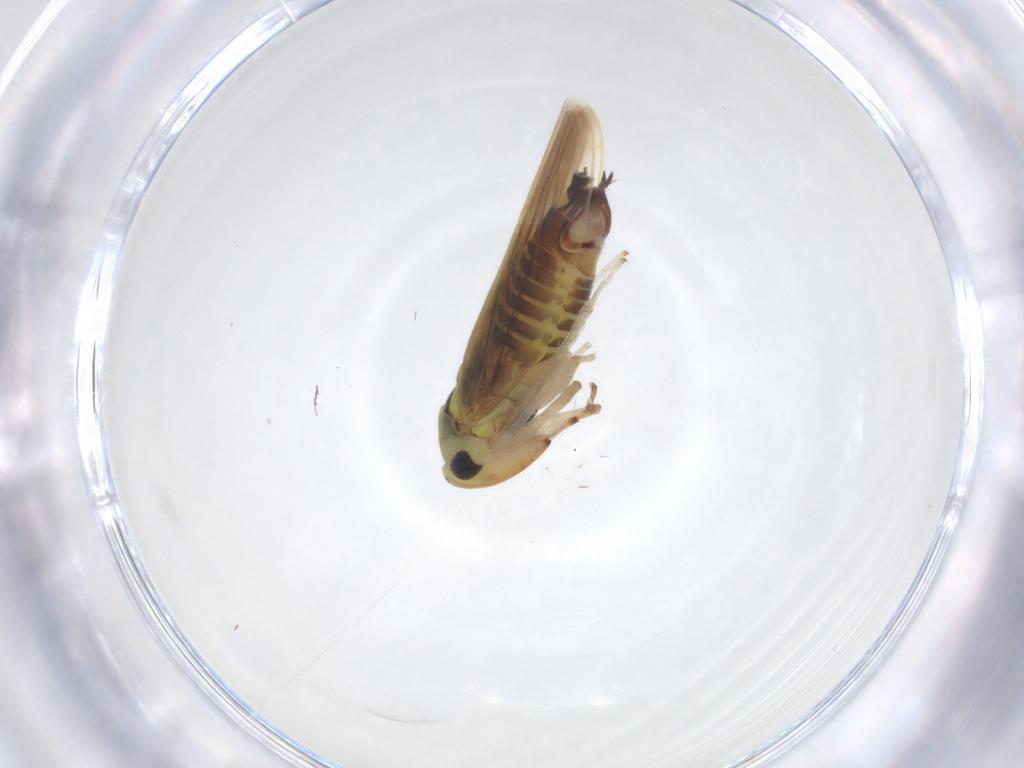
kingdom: Animalia
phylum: Arthropoda
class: Insecta
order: Hemiptera
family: Cicadellidae
